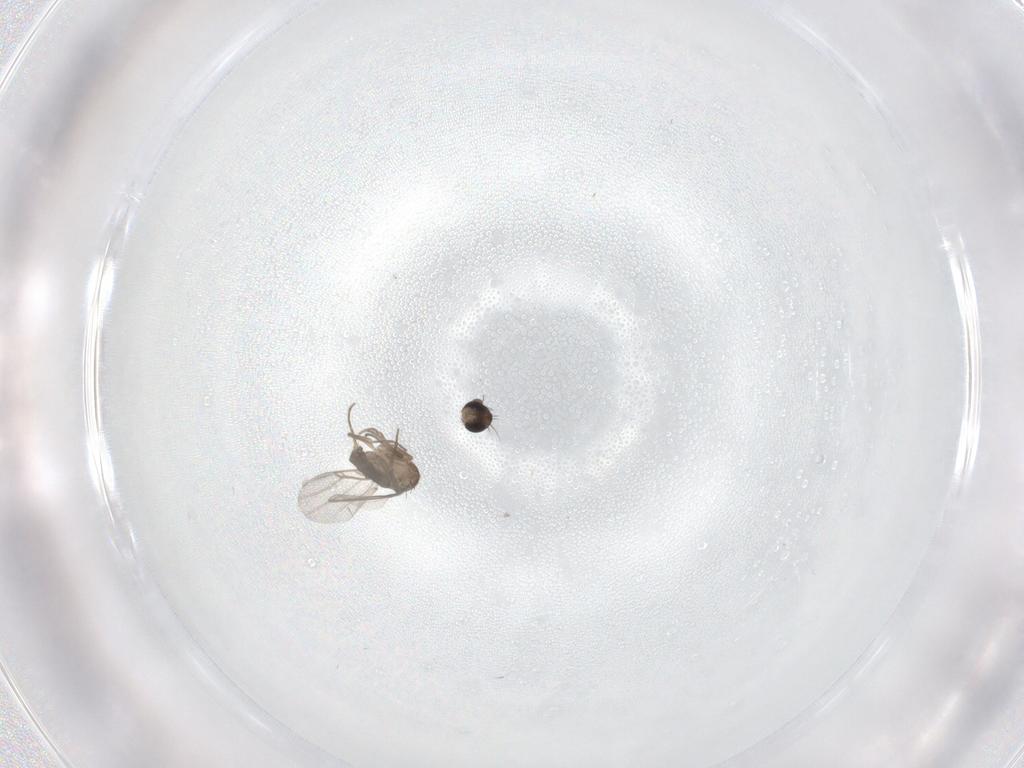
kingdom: Animalia
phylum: Arthropoda
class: Insecta
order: Diptera
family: Phoridae
